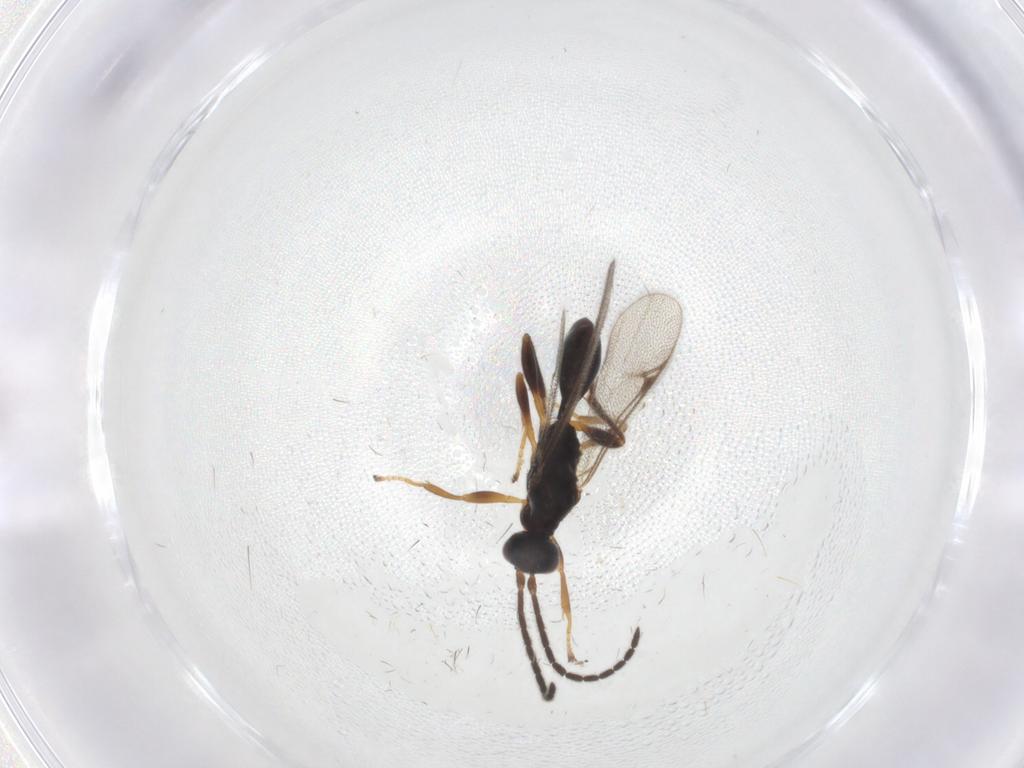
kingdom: Animalia
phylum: Arthropoda
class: Insecta
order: Hymenoptera
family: Proctotrupidae
